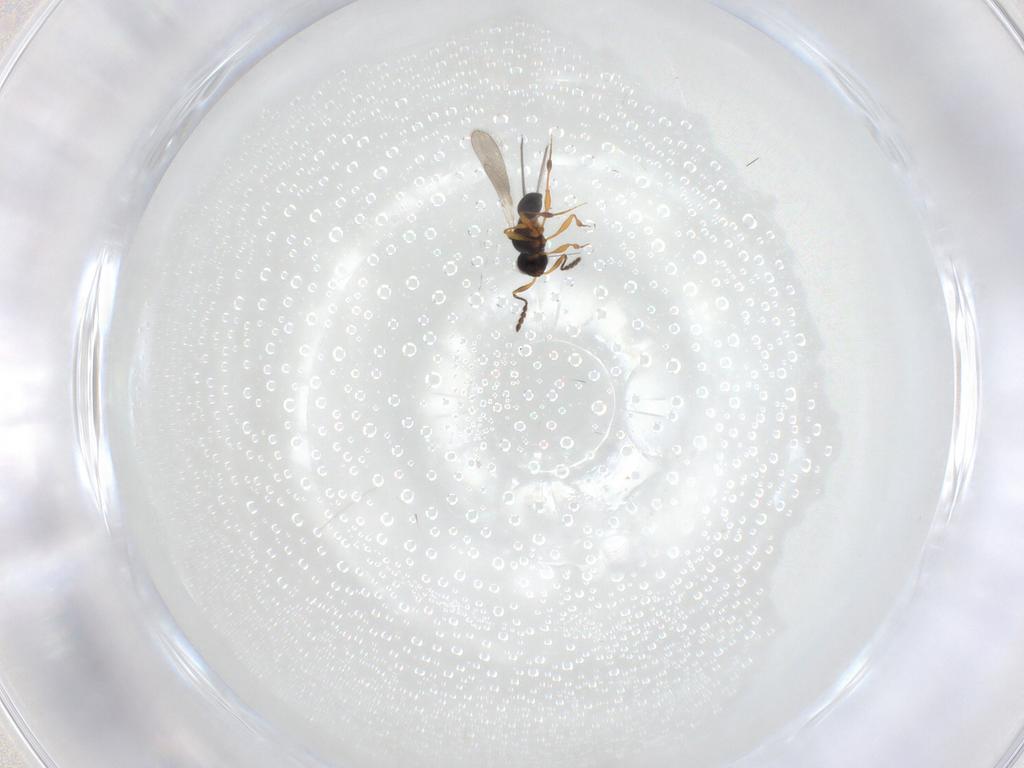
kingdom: Animalia
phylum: Arthropoda
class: Insecta
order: Hymenoptera
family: Platygastridae
